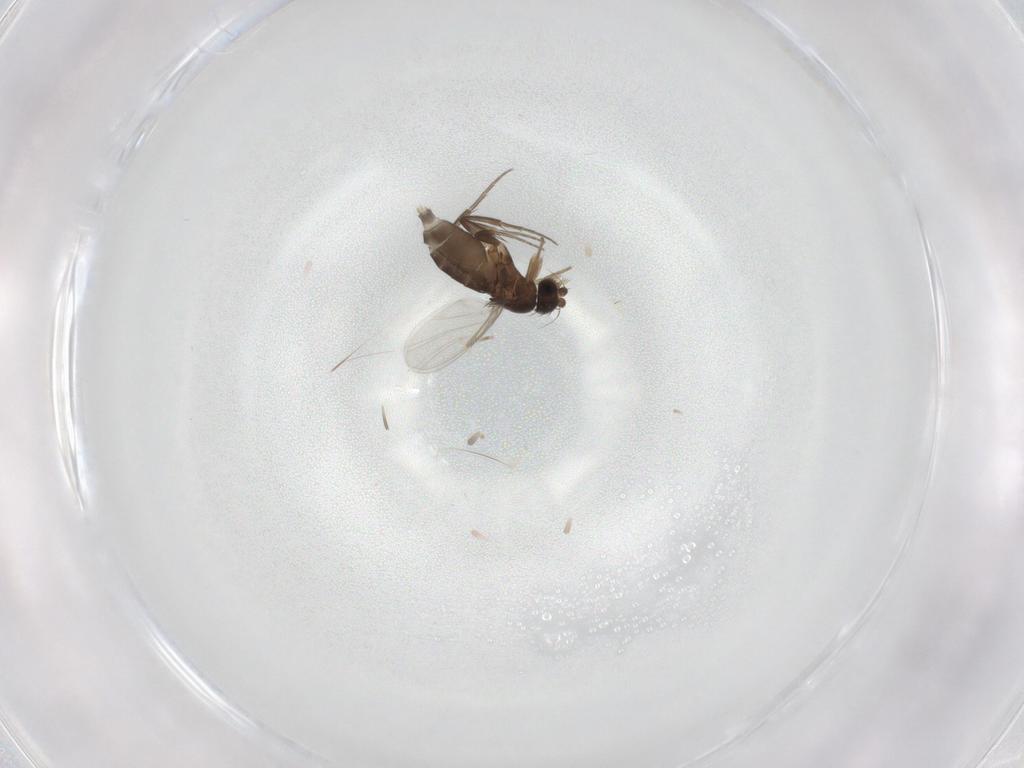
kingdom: Animalia
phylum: Arthropoda
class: Insecta
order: Diptera
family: Phoridae
